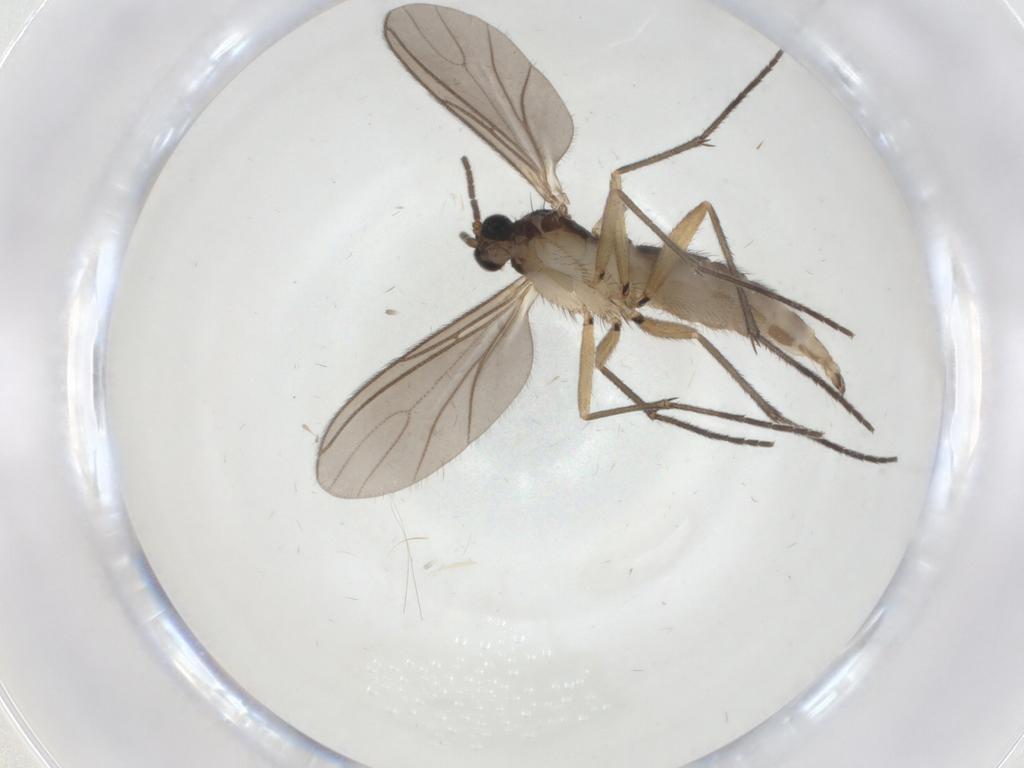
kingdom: Animalia
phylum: Arthropoda
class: Insecta
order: Diptera
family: Sciaridae
